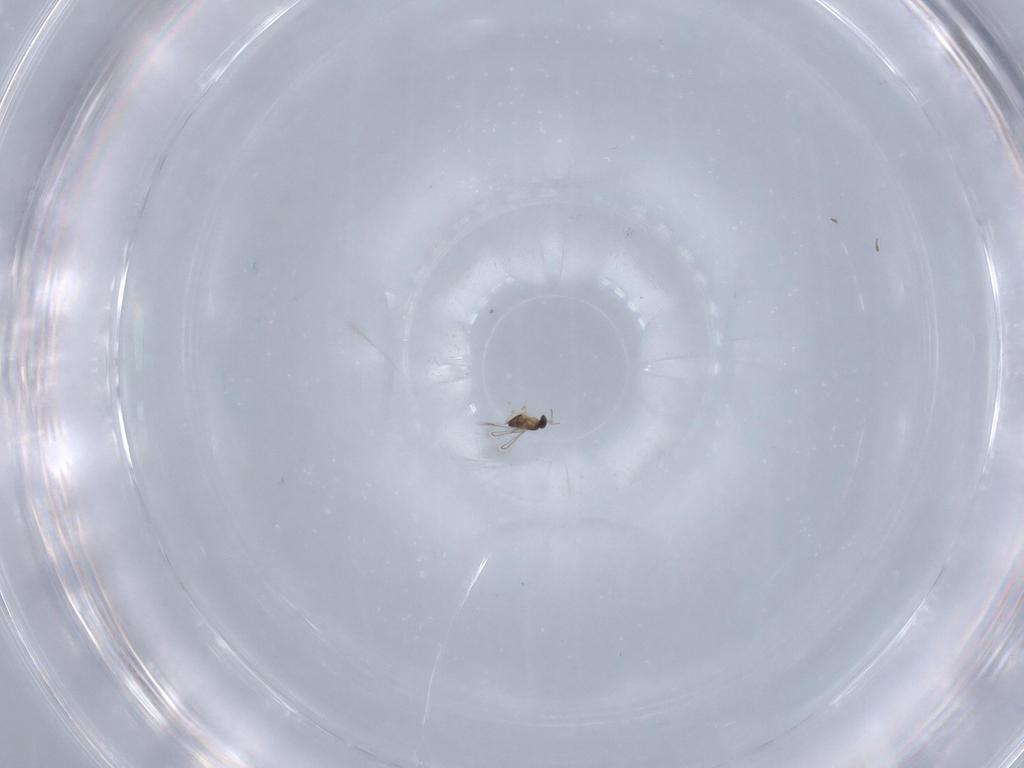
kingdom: Animalia
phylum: Arthropoda
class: Insecta
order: Hymenoptera
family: Mymaridae
